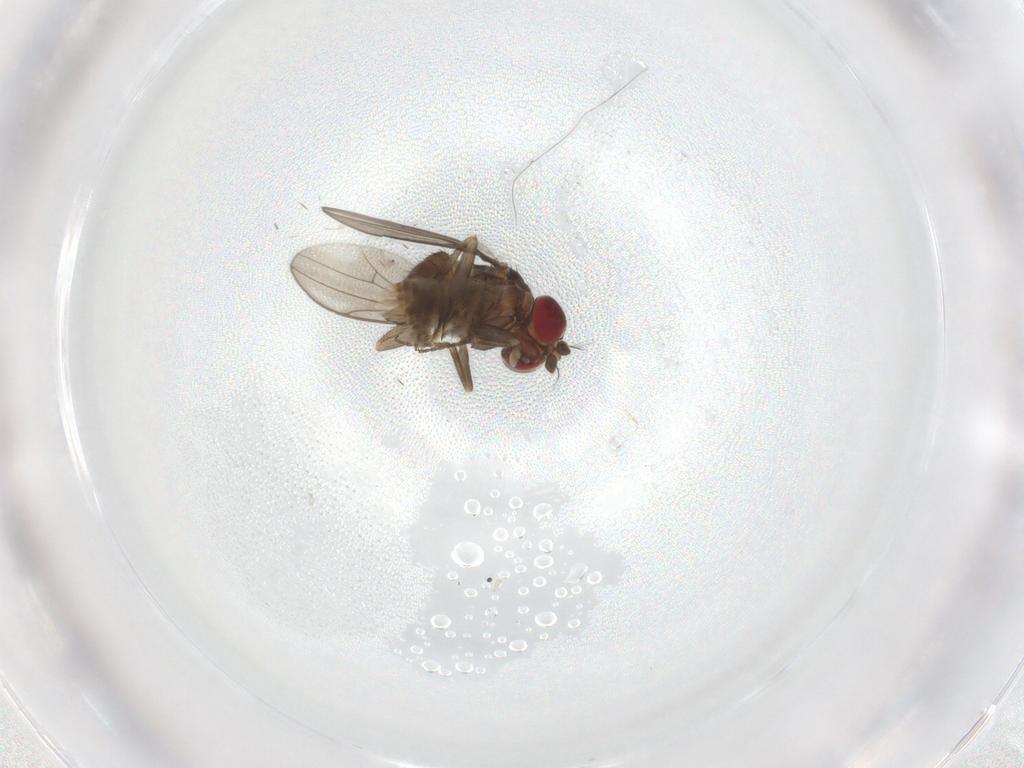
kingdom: Animalia
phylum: Arthropoda
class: Insecta
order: Diptera
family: Ephydridae
